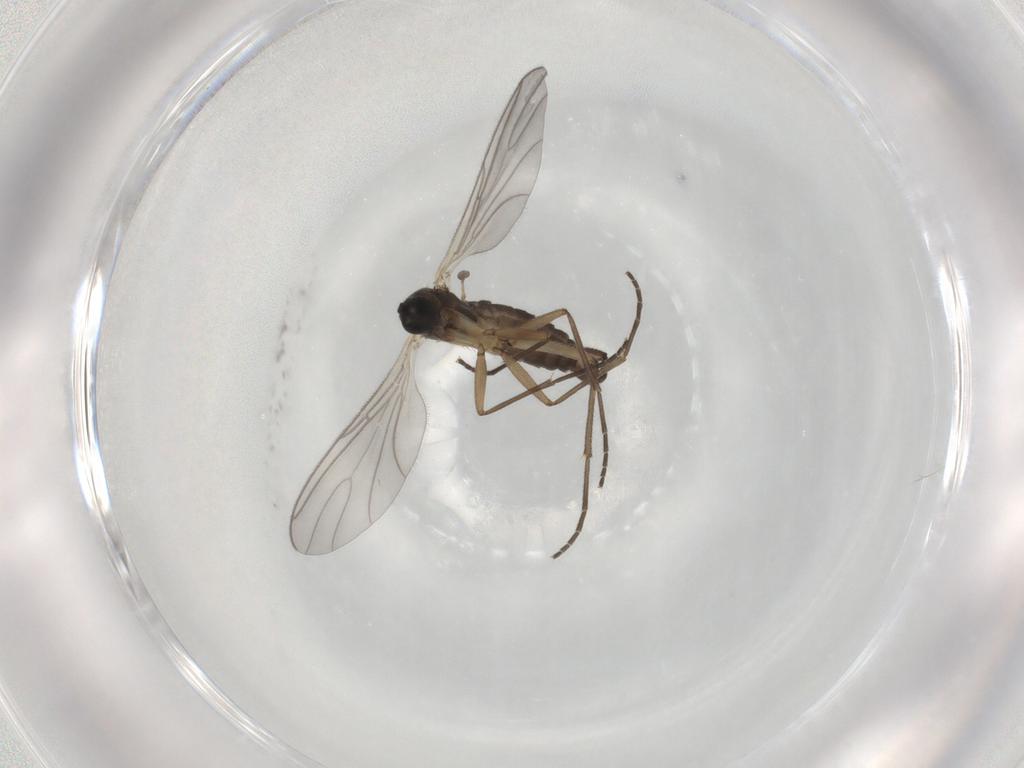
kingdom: Animalia
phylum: Arthropoda
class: Insecta
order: Diptera
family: Sciaridae
